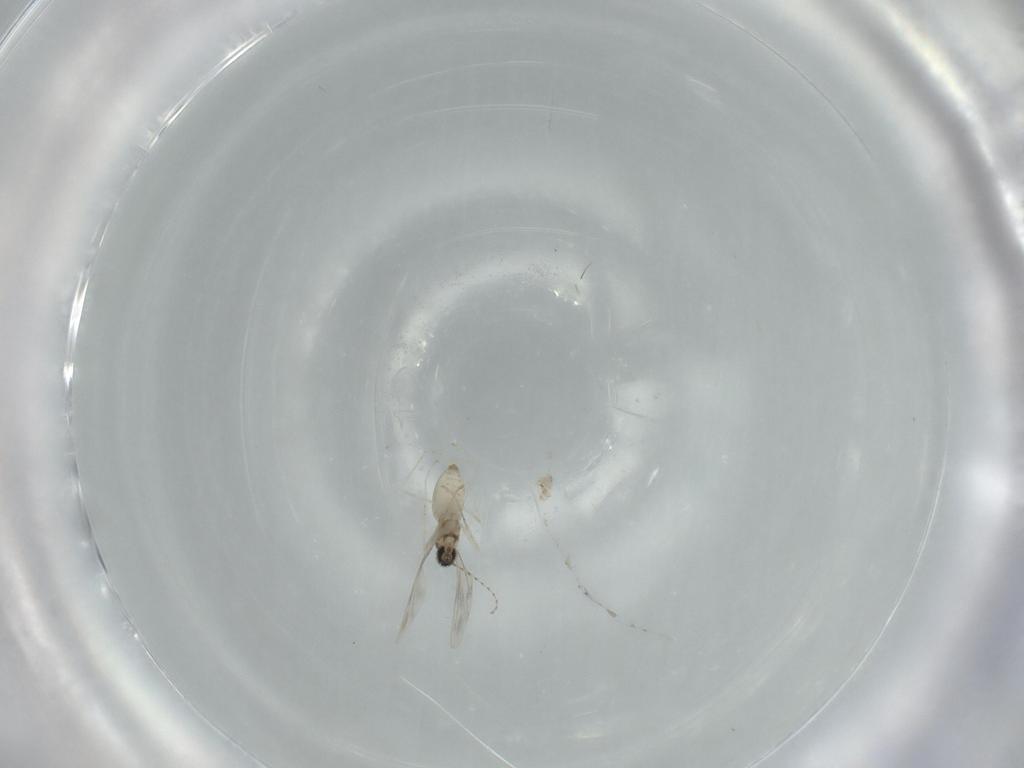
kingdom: Animalia
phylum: Arthropoda
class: Insecta
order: Diptera
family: Cecidomyiidae
